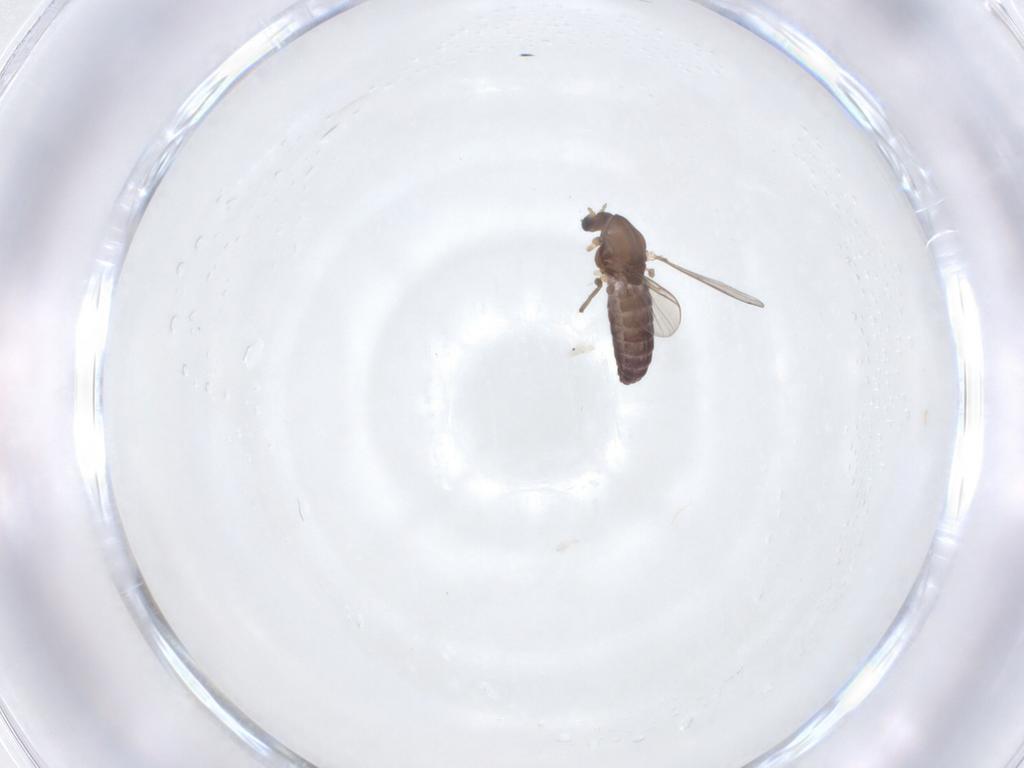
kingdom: Animalia
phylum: Arthropoda
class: Insecta
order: Diptera
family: Chironomidae
